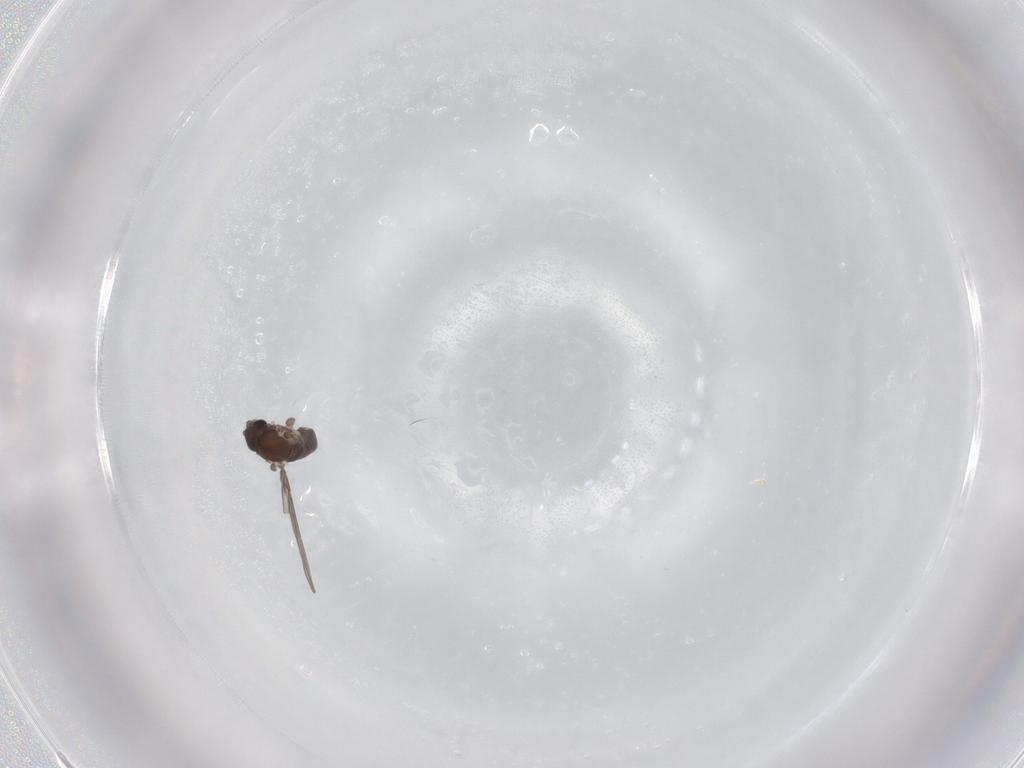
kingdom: Animalia
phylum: Arthropoda
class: Insecta
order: Diptera
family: Psychodidae
